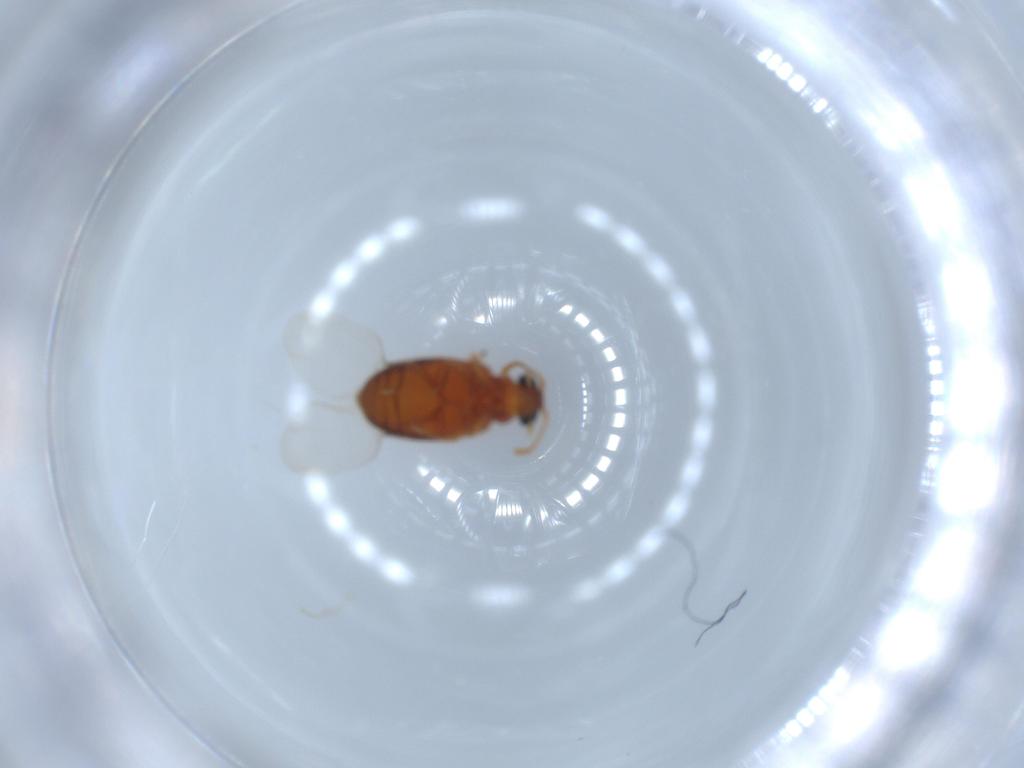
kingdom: Animalia
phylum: Arthropoda
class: Insecta
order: Coleoptera
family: Aderidae
